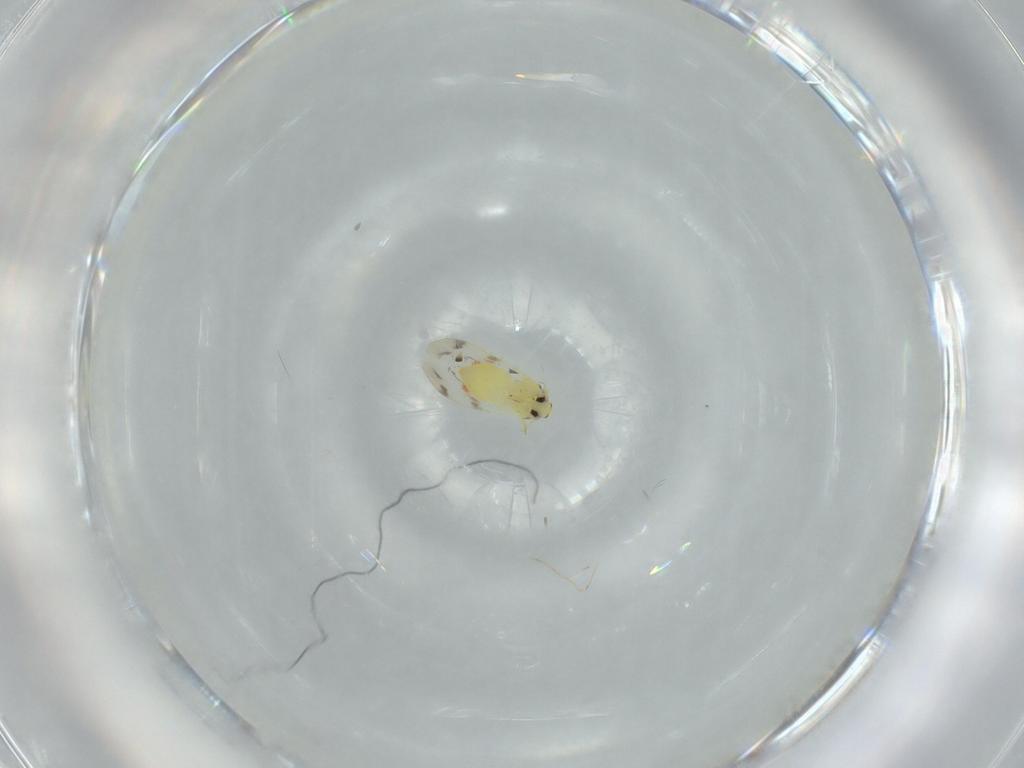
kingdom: Animalia
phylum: Arthropoda
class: Insecta
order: Hemiptera
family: Aleyrodidae
